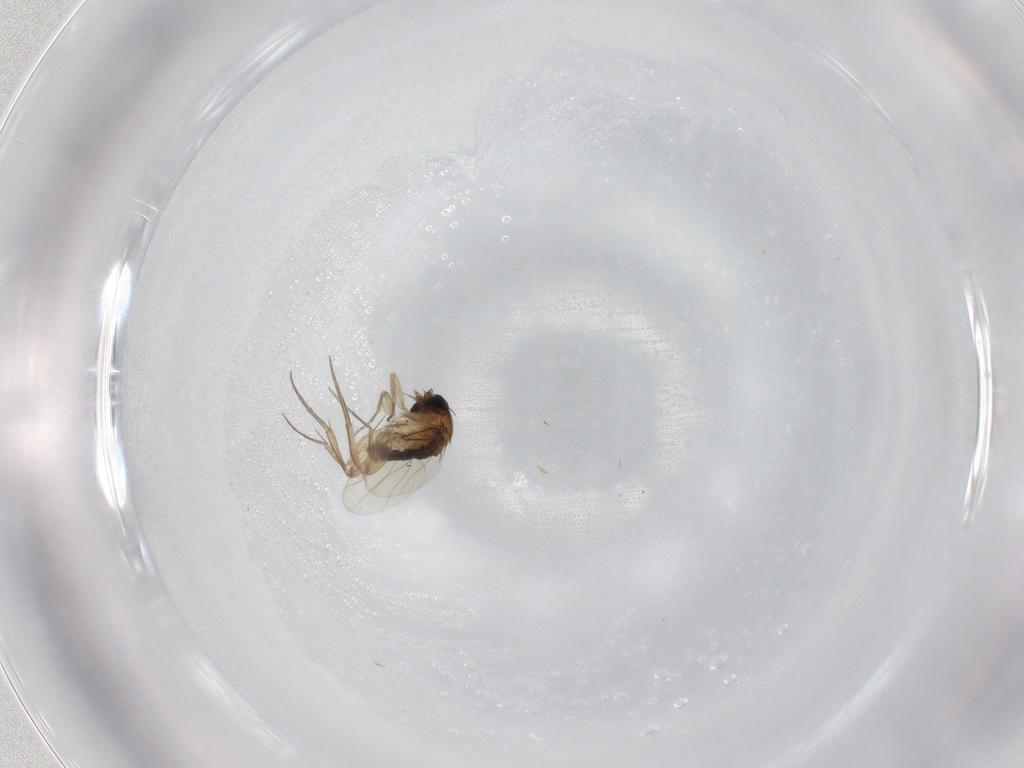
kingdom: Animalia
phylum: Arthropoda
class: Insecta
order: Diptera
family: Phoridae
